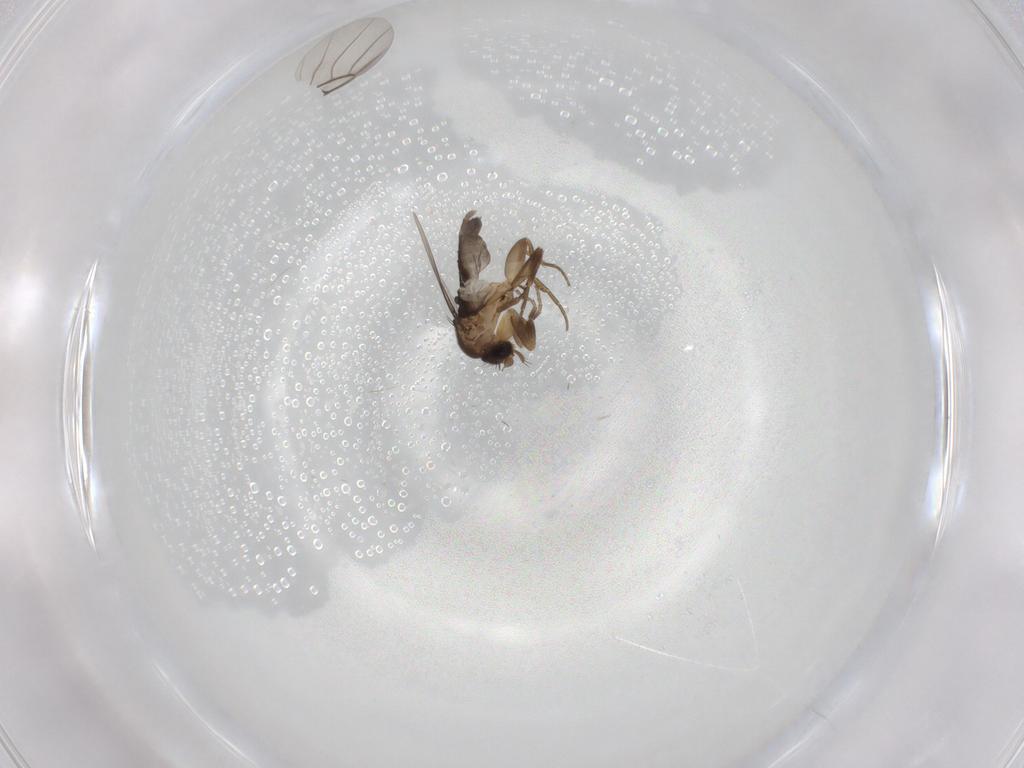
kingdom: Animalia
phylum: Arthropoda
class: Insecta
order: Diptera
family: Phoridae
